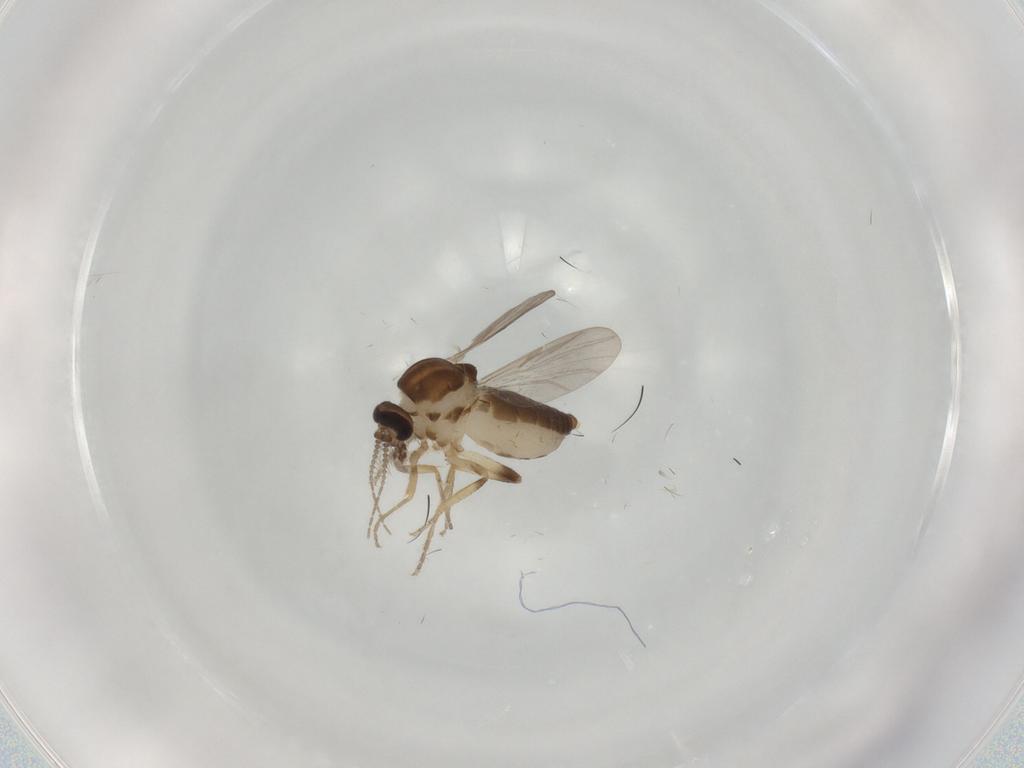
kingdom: Animalia
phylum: Arthropoda
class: Insecta
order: Diptera
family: Ceratopogonidae
